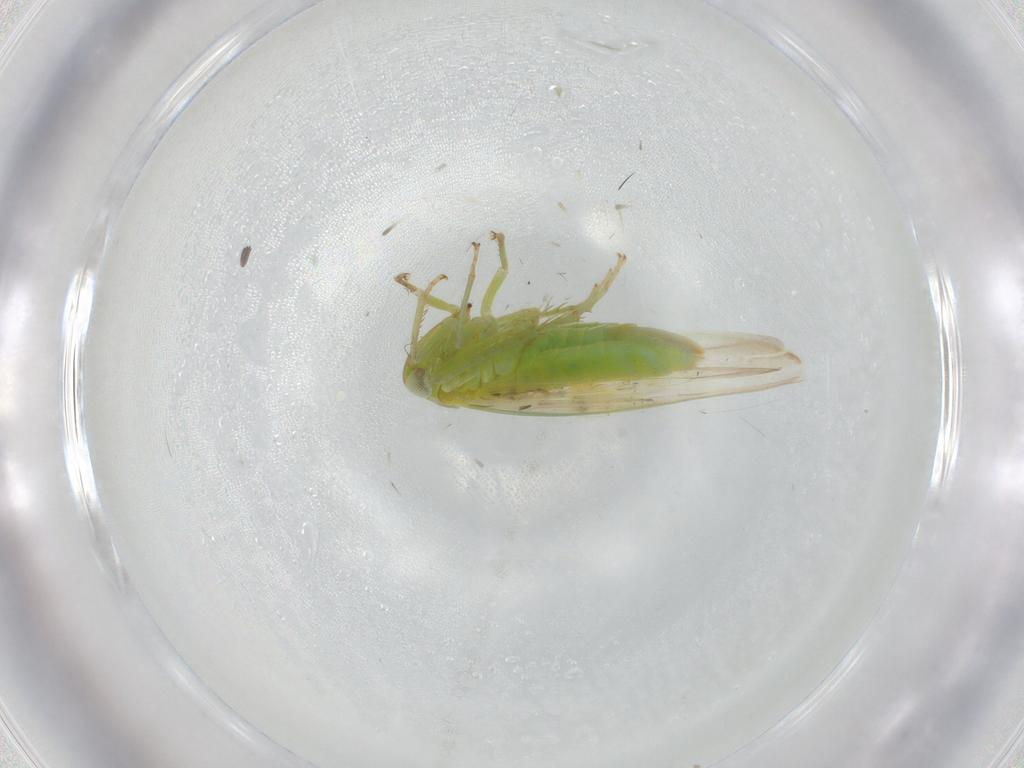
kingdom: Animalia
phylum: Arthropoda
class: Insecta
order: Hemiptera
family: Aleyrodidae
